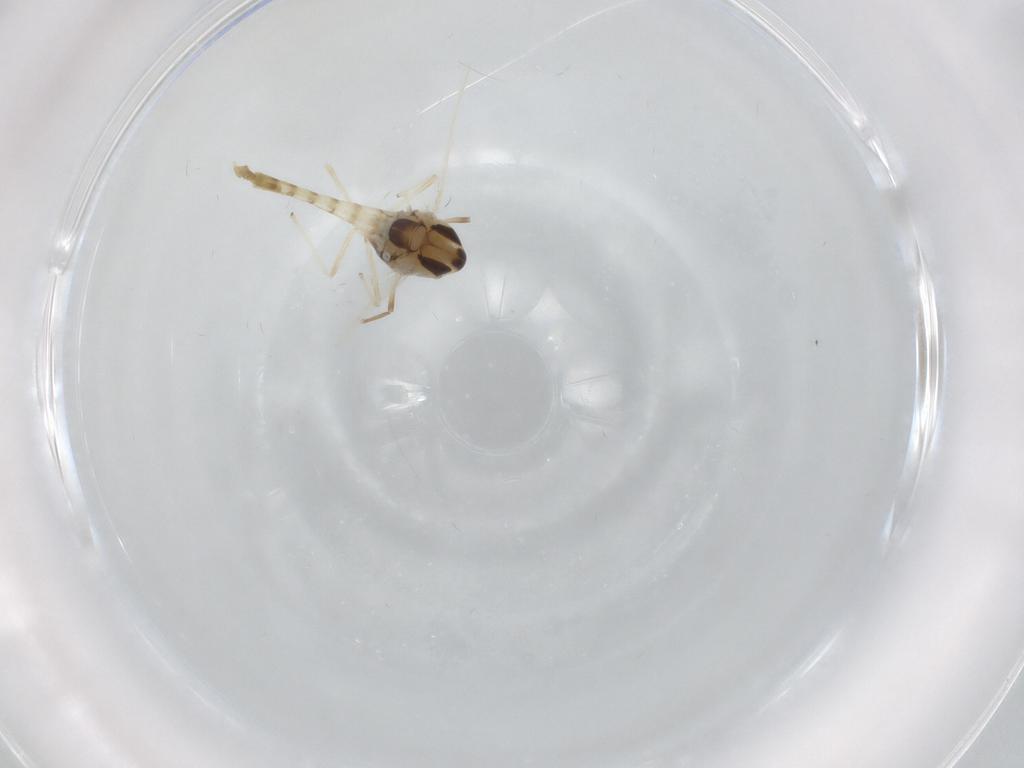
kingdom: Animalia
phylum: Arthropoda
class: Insecta
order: Diptera
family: Chironomidae
